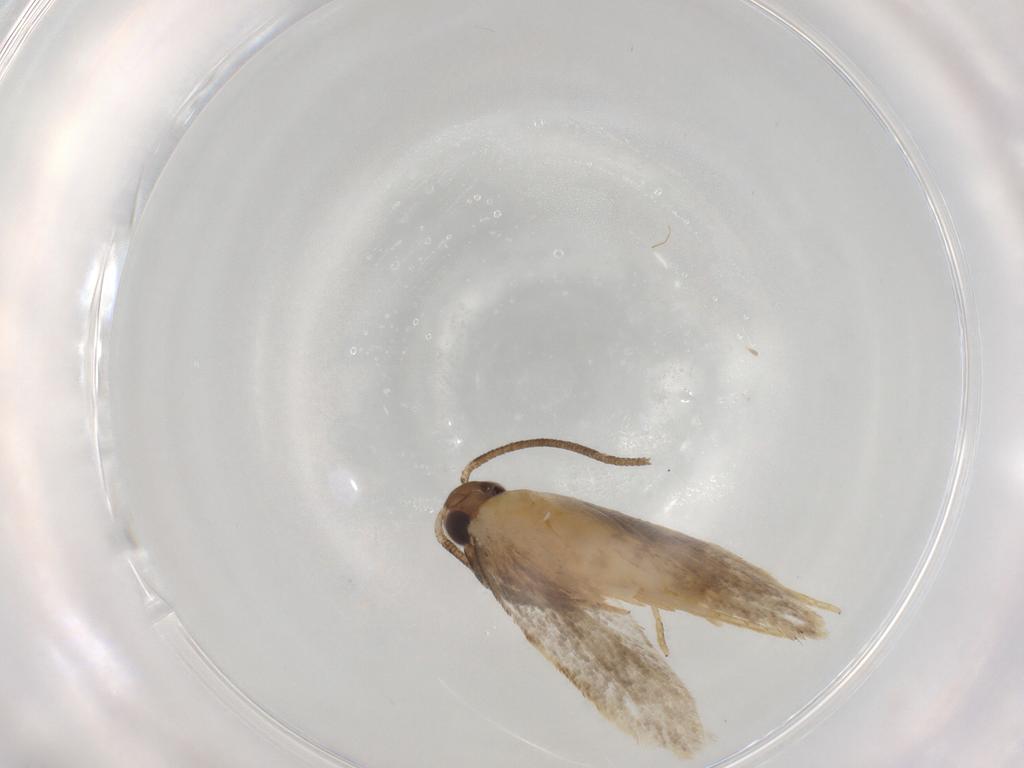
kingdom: Animalia
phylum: Arthropoda
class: Insecta
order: Lepidoptera
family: Autostichidae
